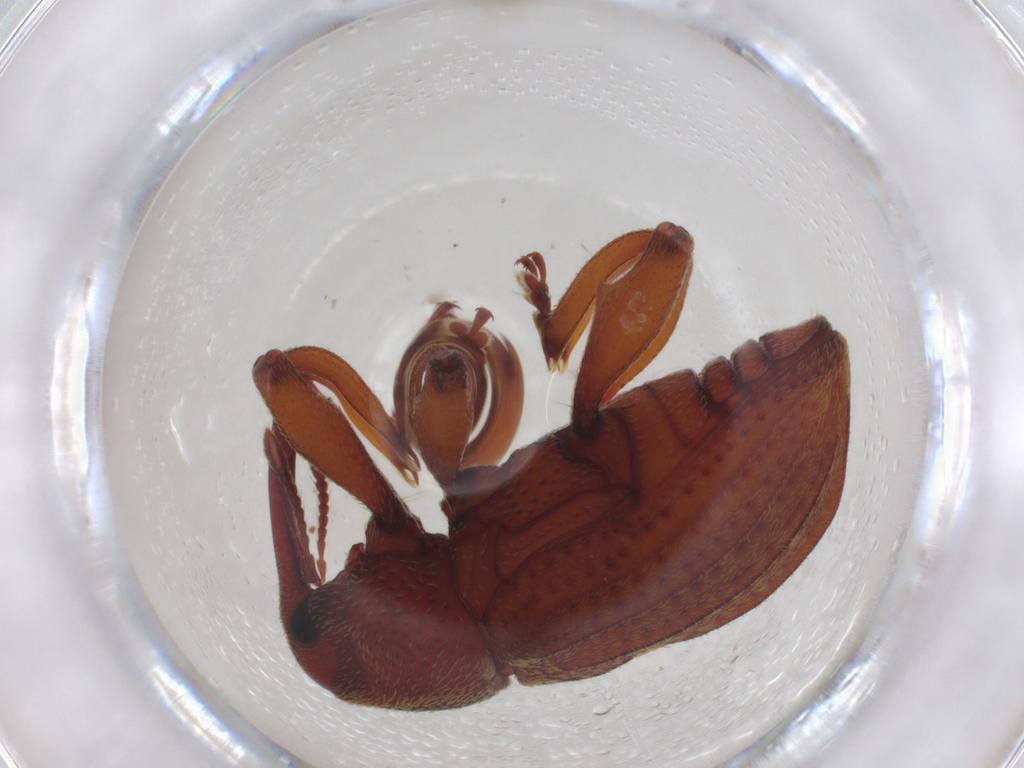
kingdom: Animalia
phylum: Arthropoda
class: Insecta
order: Coleoptera
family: Curculionidae
